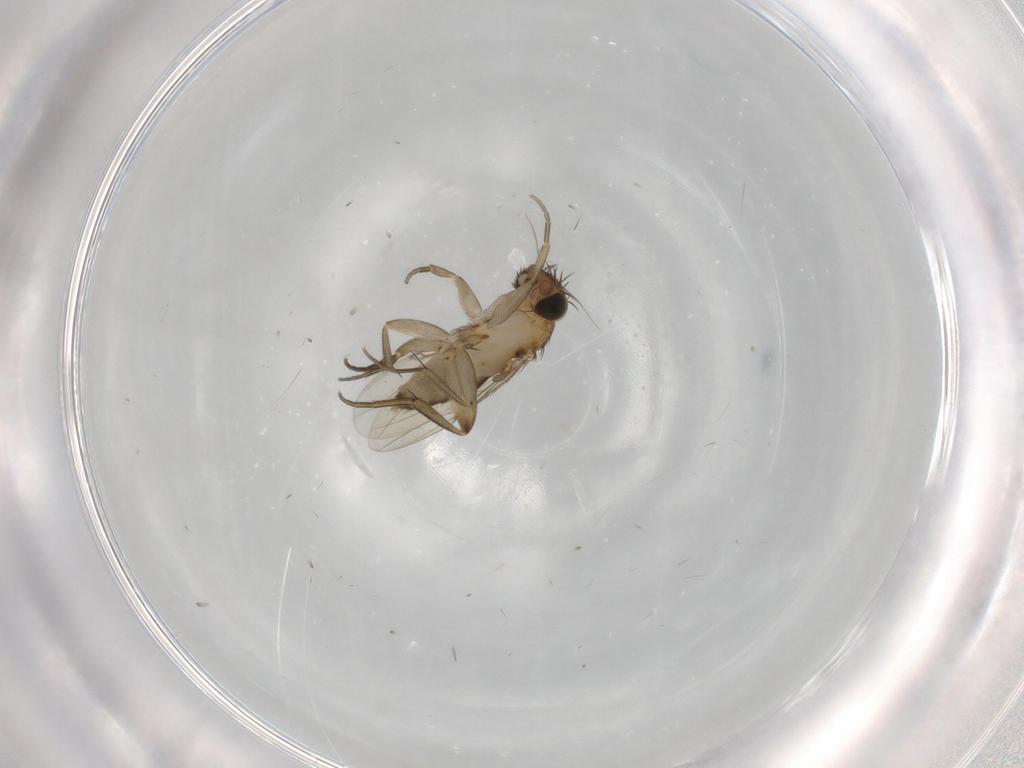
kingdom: Animalia
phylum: Arthropoda
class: Insecta
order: Diptera
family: Phoridae
